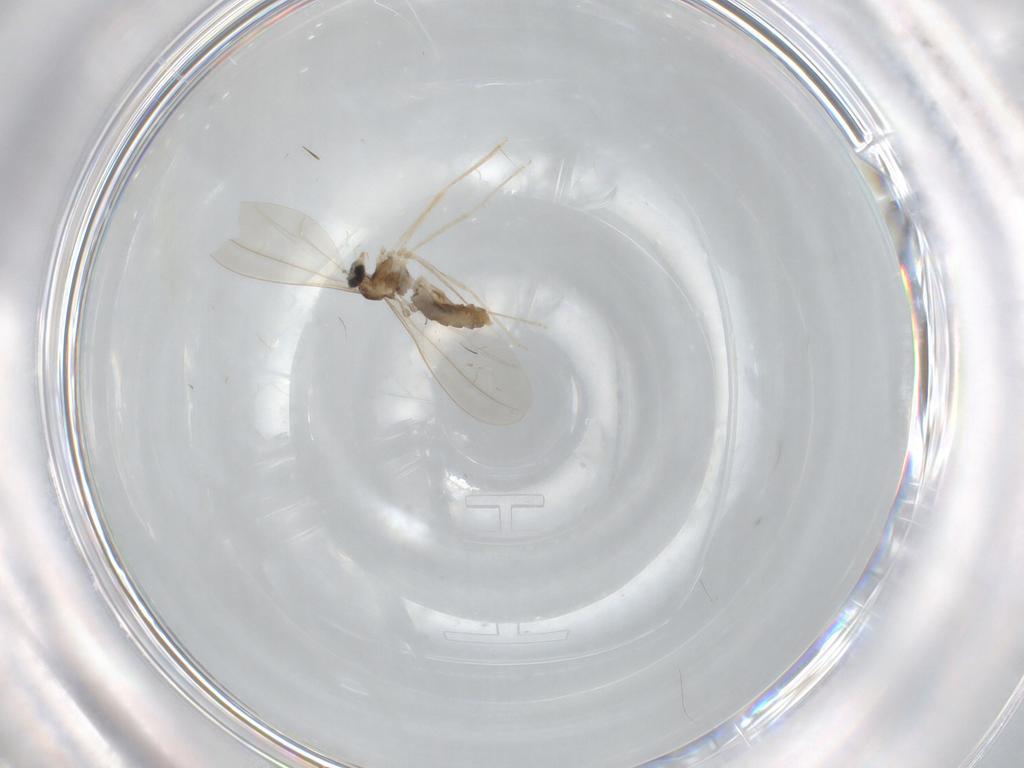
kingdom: Animalia
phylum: Arthropoda
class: Insecta
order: Diptera
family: Cecidomyiidae
